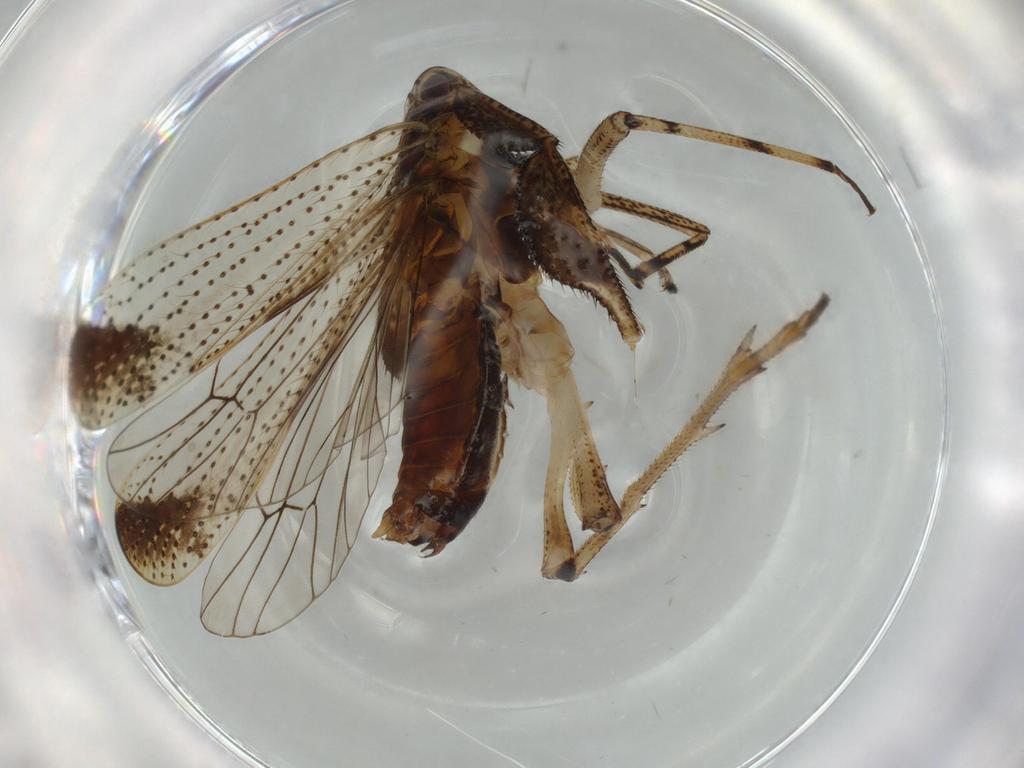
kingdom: Animalia
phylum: Arthropoda
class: Insecta
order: Hemiptera
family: Delphacidae
